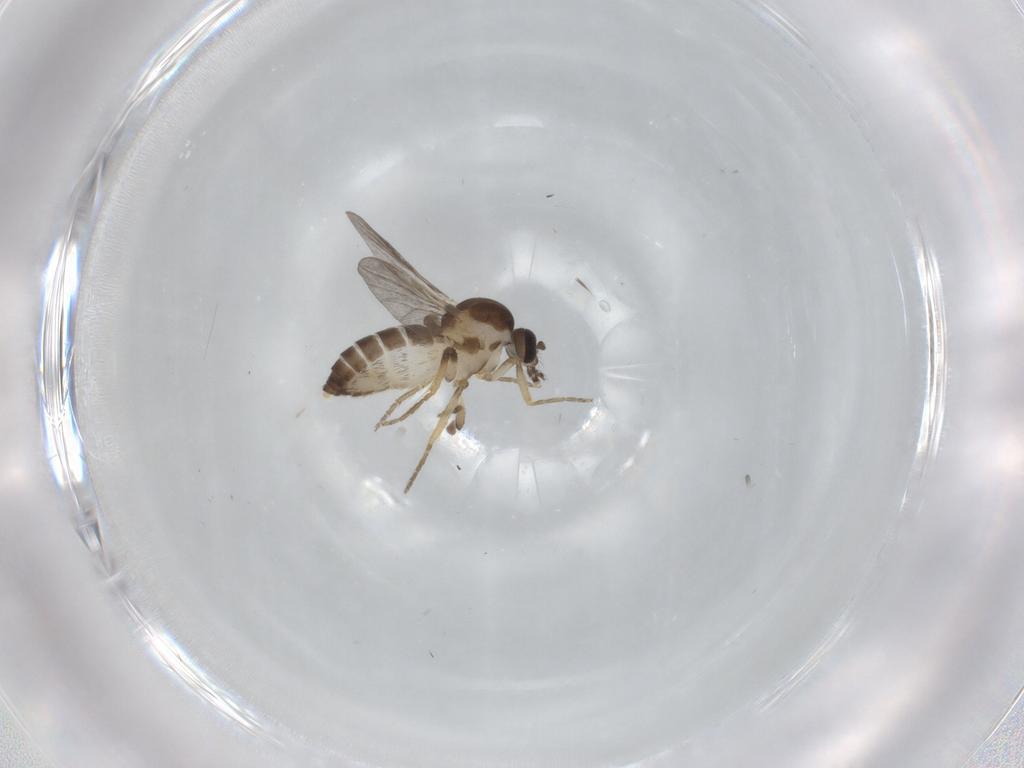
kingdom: Animalia
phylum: Arthropoda
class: Insecta
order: Diptera
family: Ceratopogonidae
